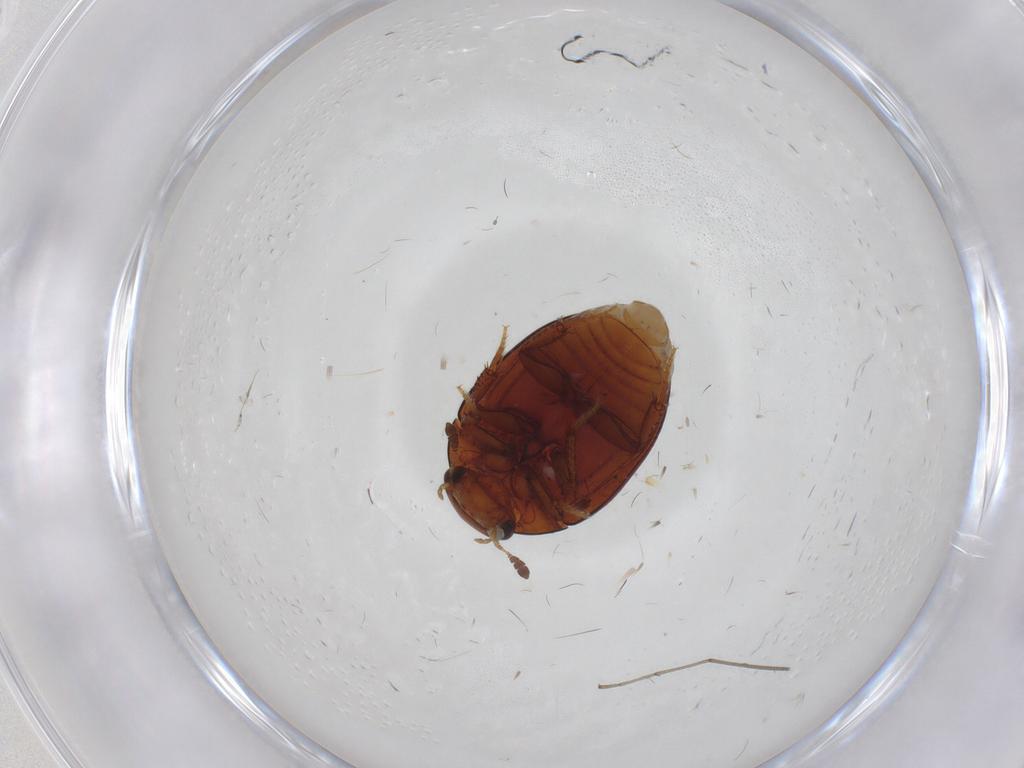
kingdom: Animalia
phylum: Arthropoda
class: Insecta
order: Coleoptera
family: Hydrophilidae
